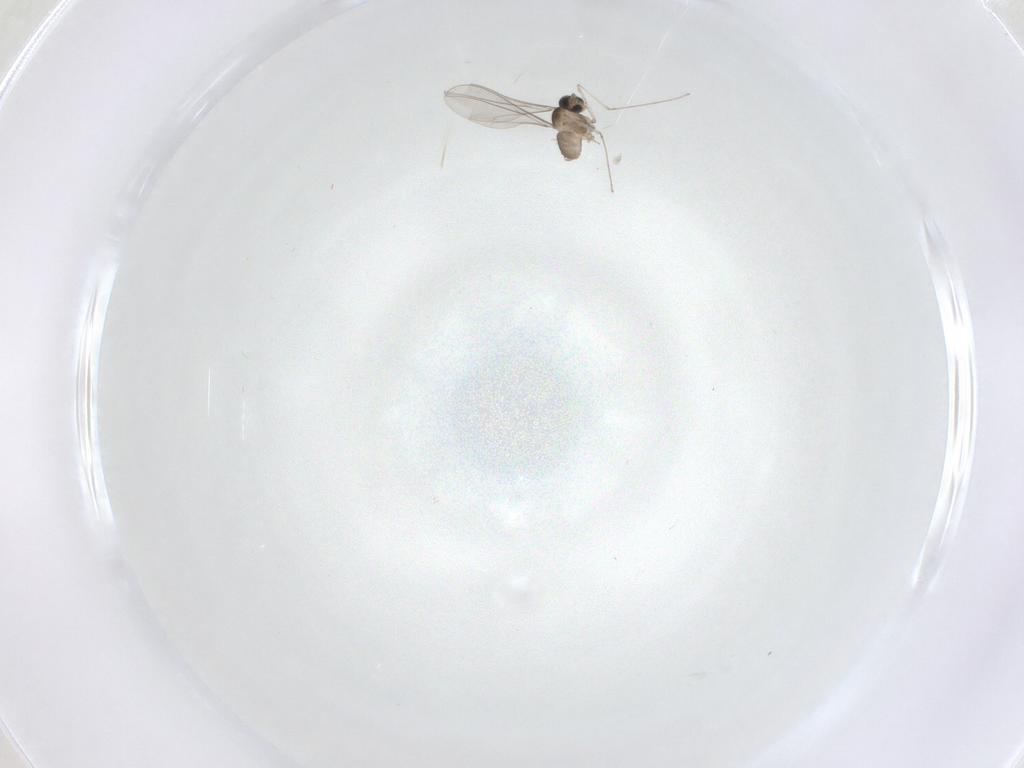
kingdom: Animalia
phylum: Arthropoda
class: Insecta
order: Diptera
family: Cecidomyiidae
